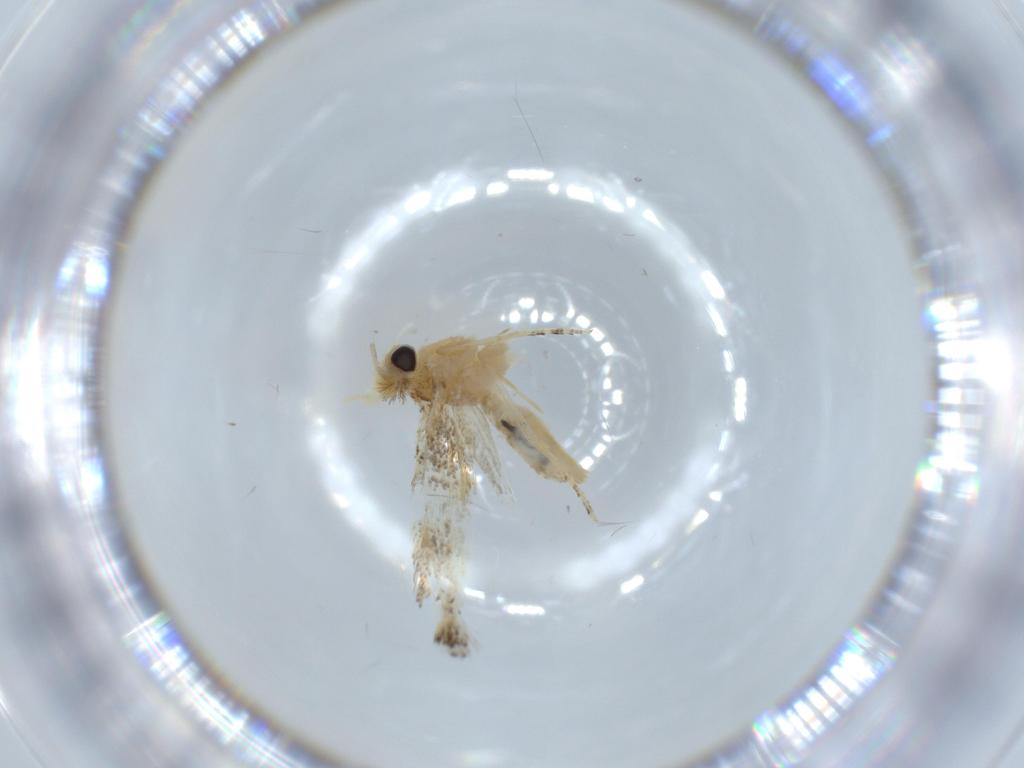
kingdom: Animalia
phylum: Arthropoda
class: Insecta
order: Lepidoptera
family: Bucculatricidae
